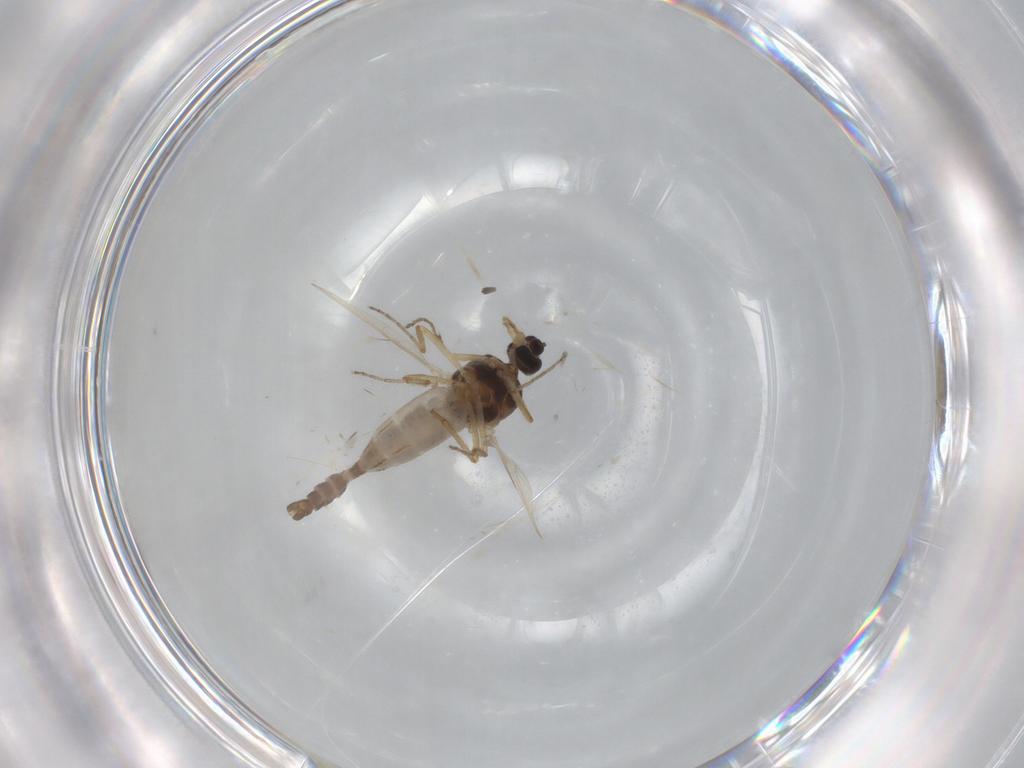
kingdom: Animalia
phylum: Arthropoda
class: Insecta
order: Diptera
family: Ceratopogonidae
